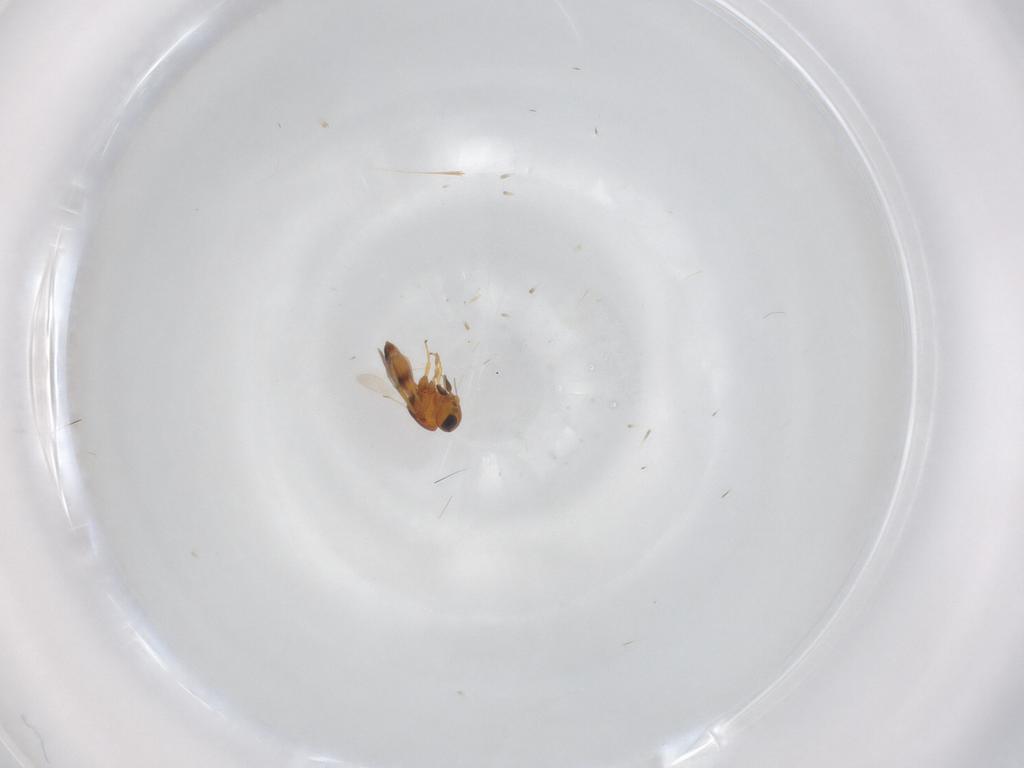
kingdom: Animalia
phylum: Arthropoda
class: Insecta
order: Hymenoptera
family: Scelionidae
